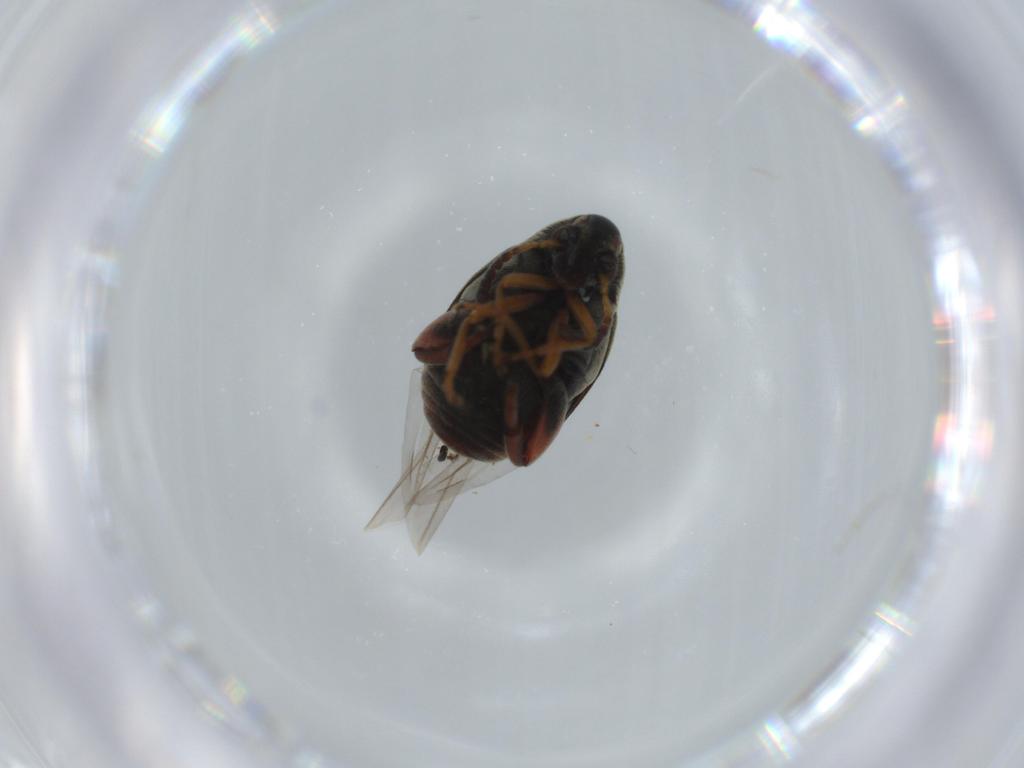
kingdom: Animalia
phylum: Arthropoda
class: Insecta
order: Coleoptera
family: Chrysomelidae
